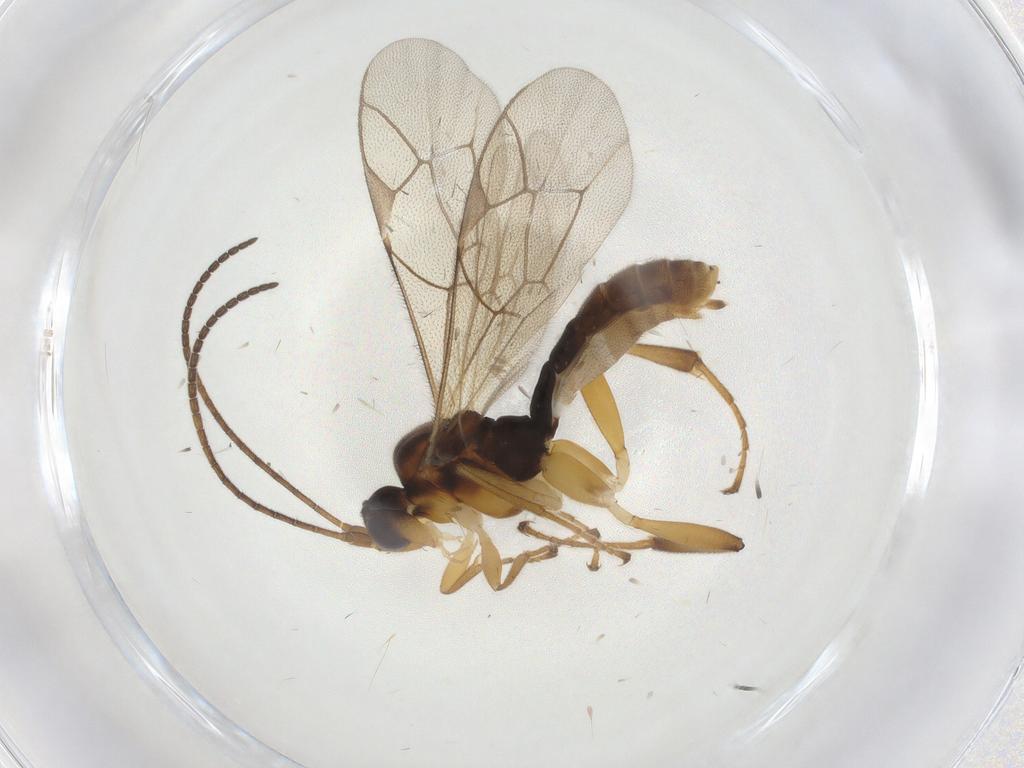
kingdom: Animalia
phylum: Arthropoda
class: Insecta
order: Hymenoptera
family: Ichneumonidae
